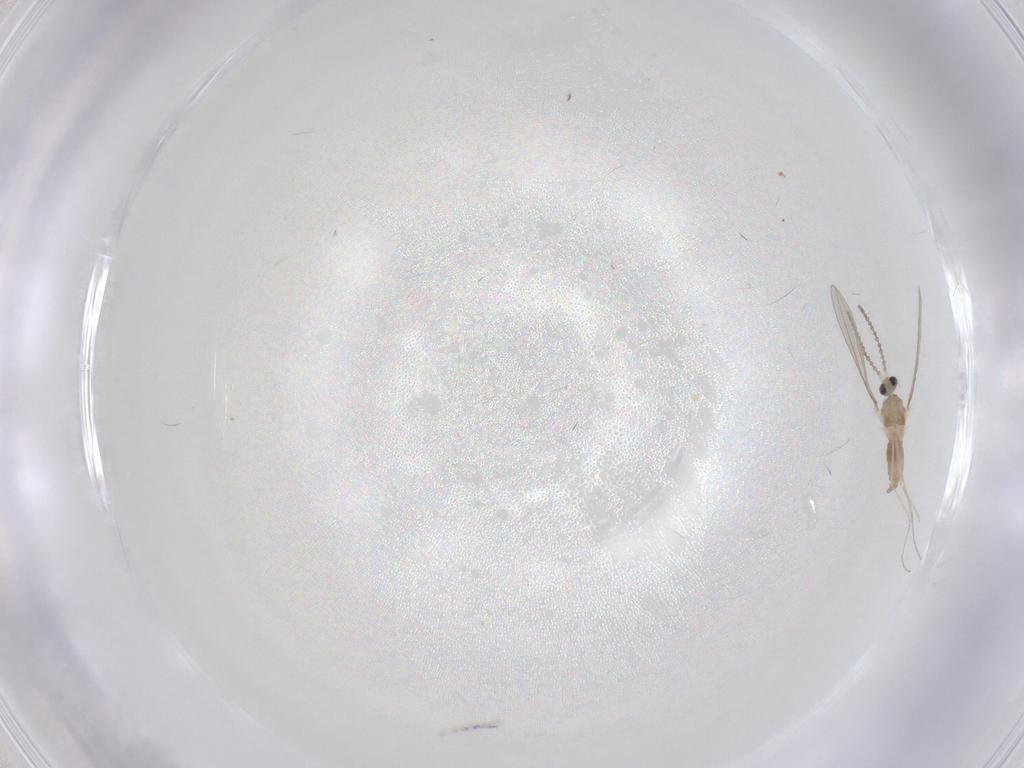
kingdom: Animalia
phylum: Arthropoda
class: Insecta
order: Diptera
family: Cecidomyiidae
